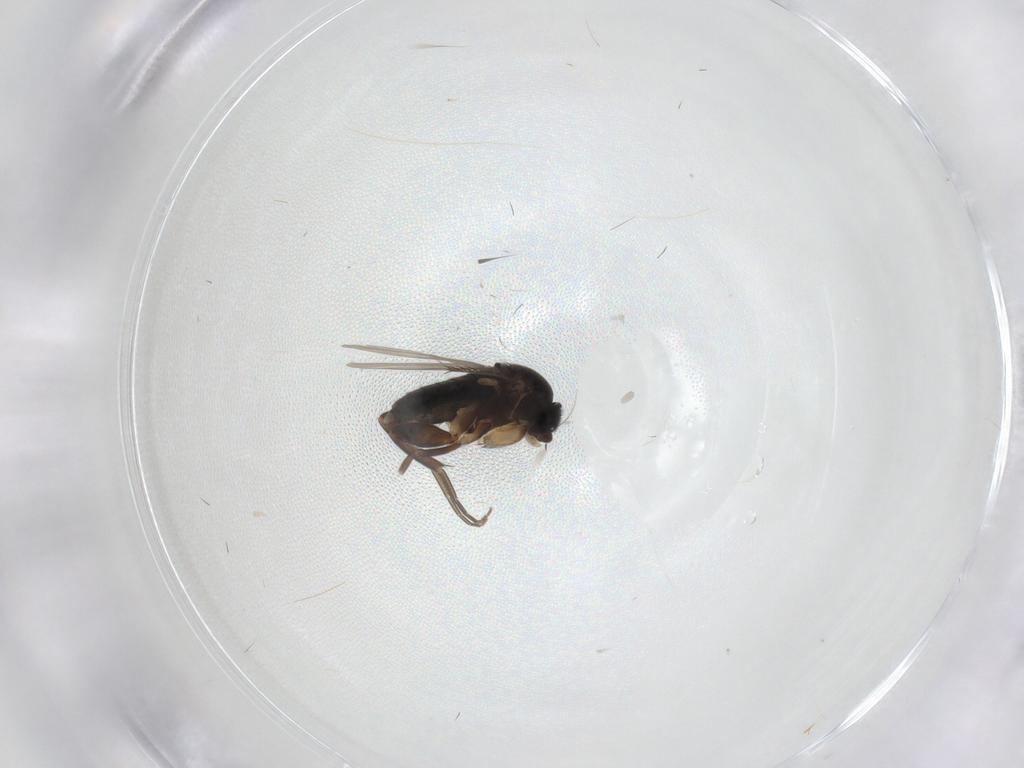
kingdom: Animalia
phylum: Arthropoda
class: Insecta
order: Diptera
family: Phoridae
